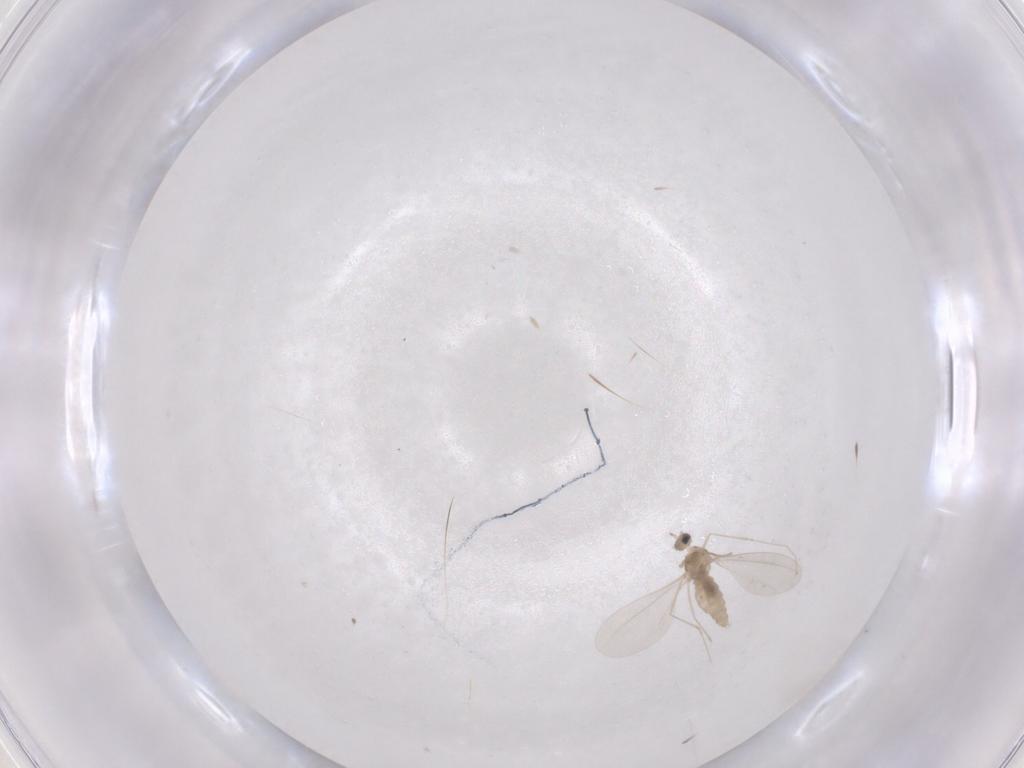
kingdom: Animalia
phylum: Arthropoda
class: Insecta
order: Diptera
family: Cecidomyiidae
